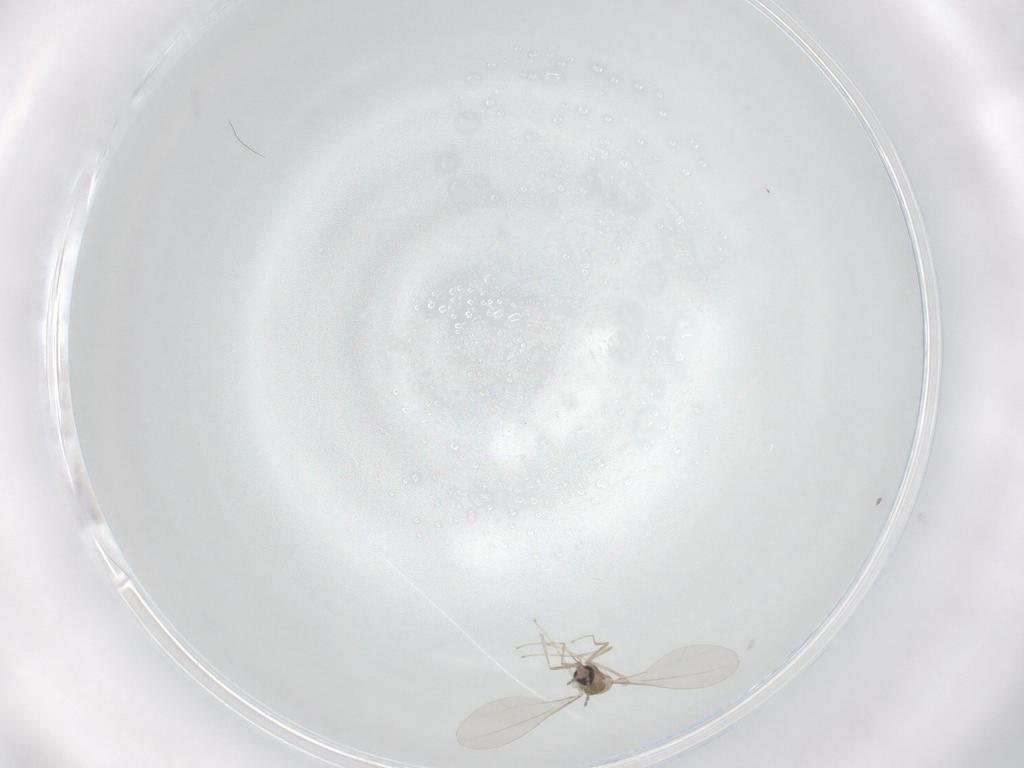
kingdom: Animalia
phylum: Arthropoda
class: Insecta
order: Diptera
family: Cecidomyiidae
